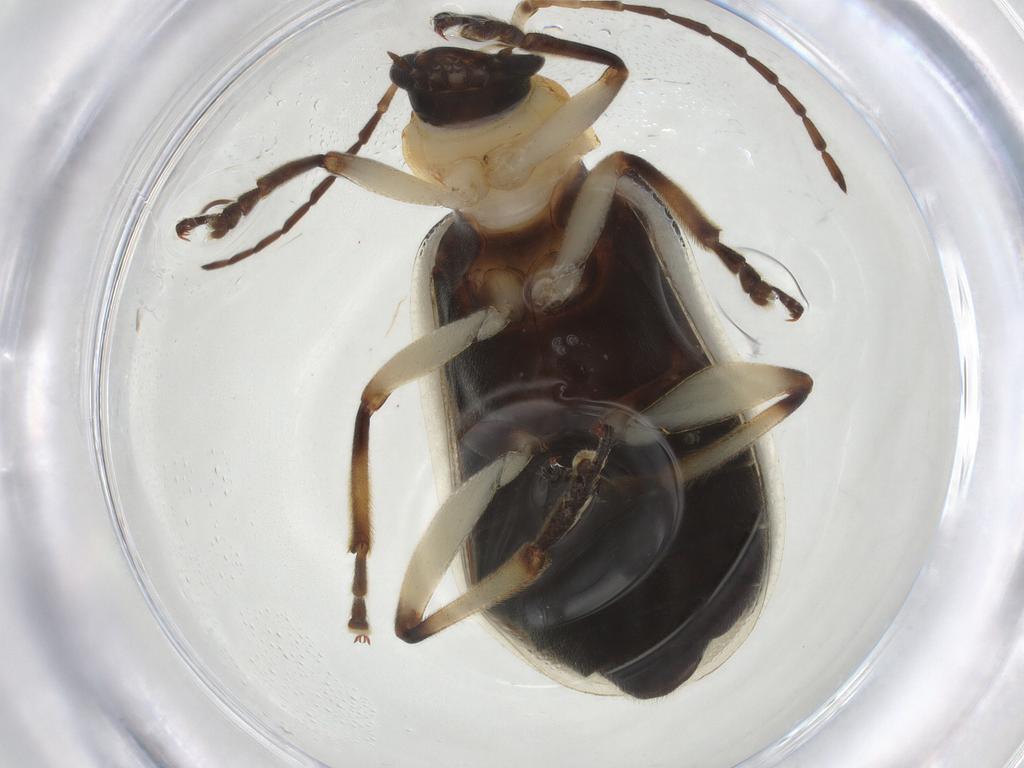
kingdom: Animalia
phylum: Arthropoda
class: Insecta
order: Coleoptera
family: Chrysomelidae
